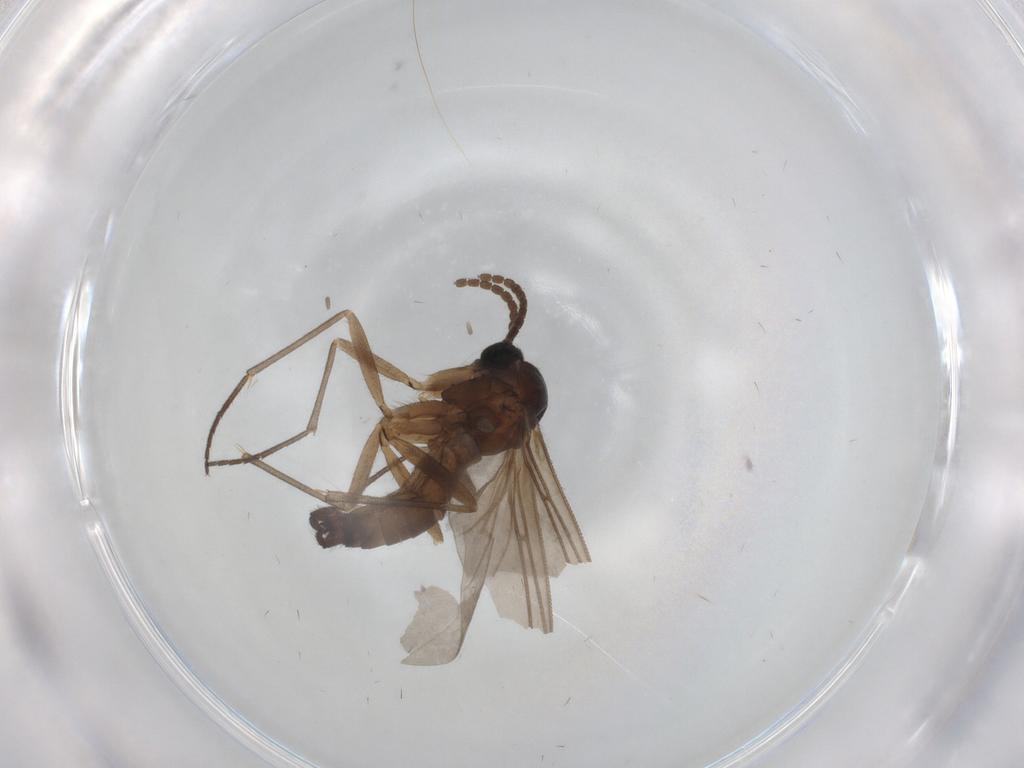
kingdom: Animalia
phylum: Arthropoda
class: Insecta
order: Diptera
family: Sciaridae
